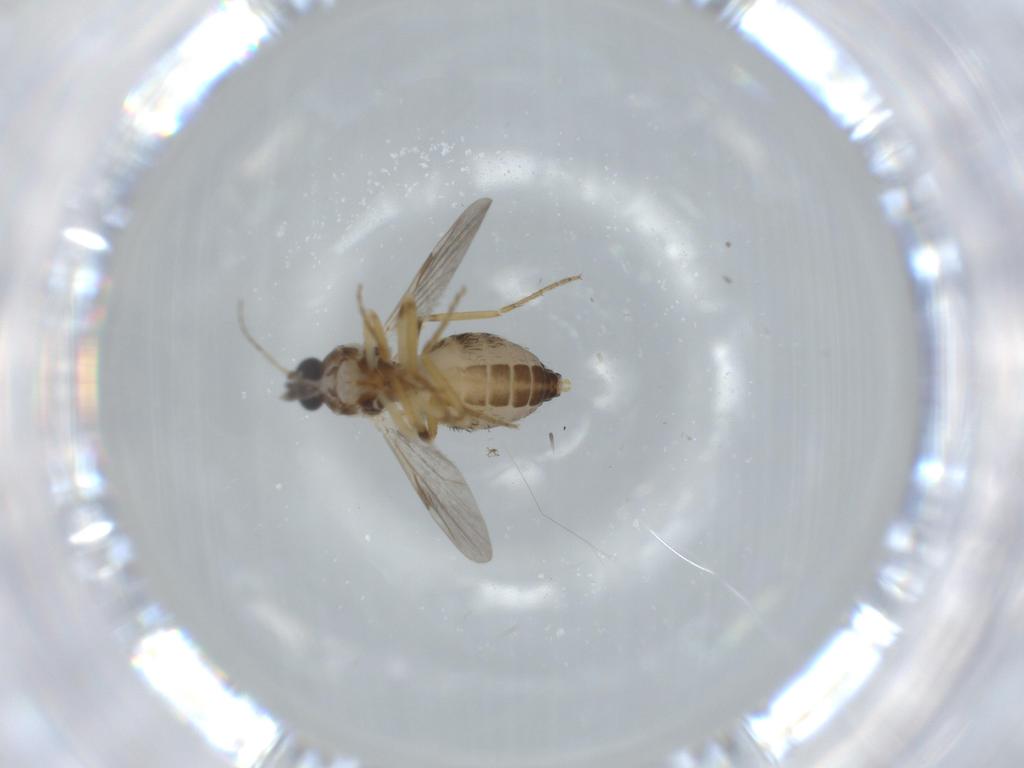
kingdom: Animalia
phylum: Arthropoda
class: Insecta
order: Diptera
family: Ceratopogonidae
